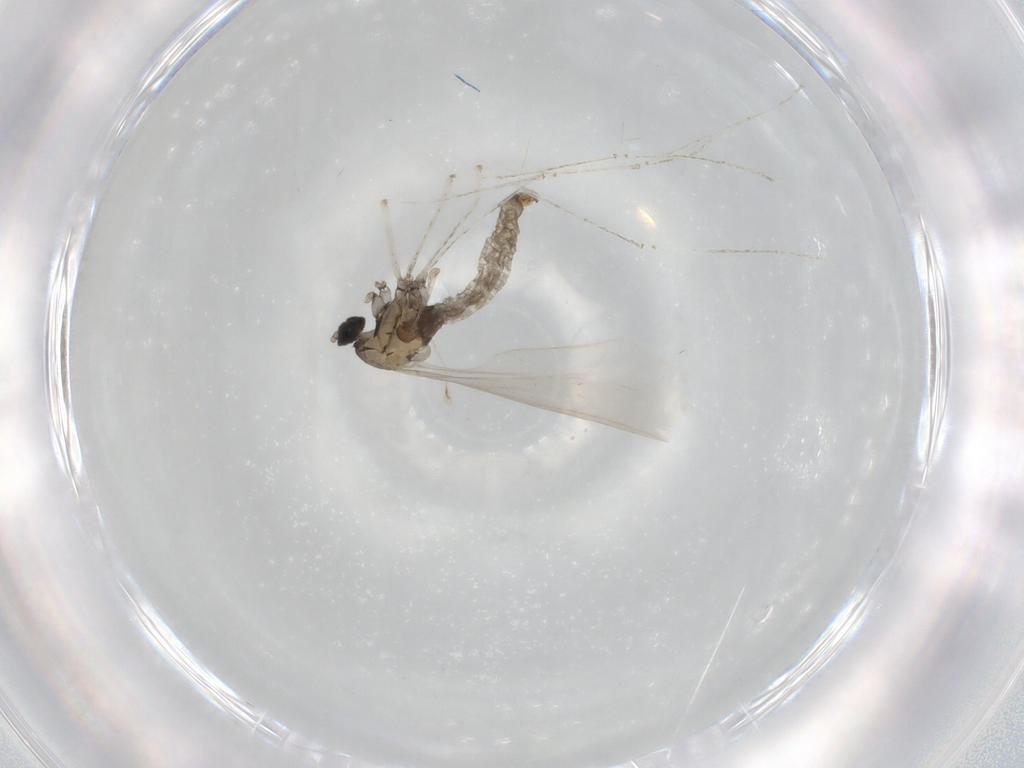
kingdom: Animalia
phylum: Arthropoda
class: Insecta
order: Diptera
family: Cecidomyiidae
